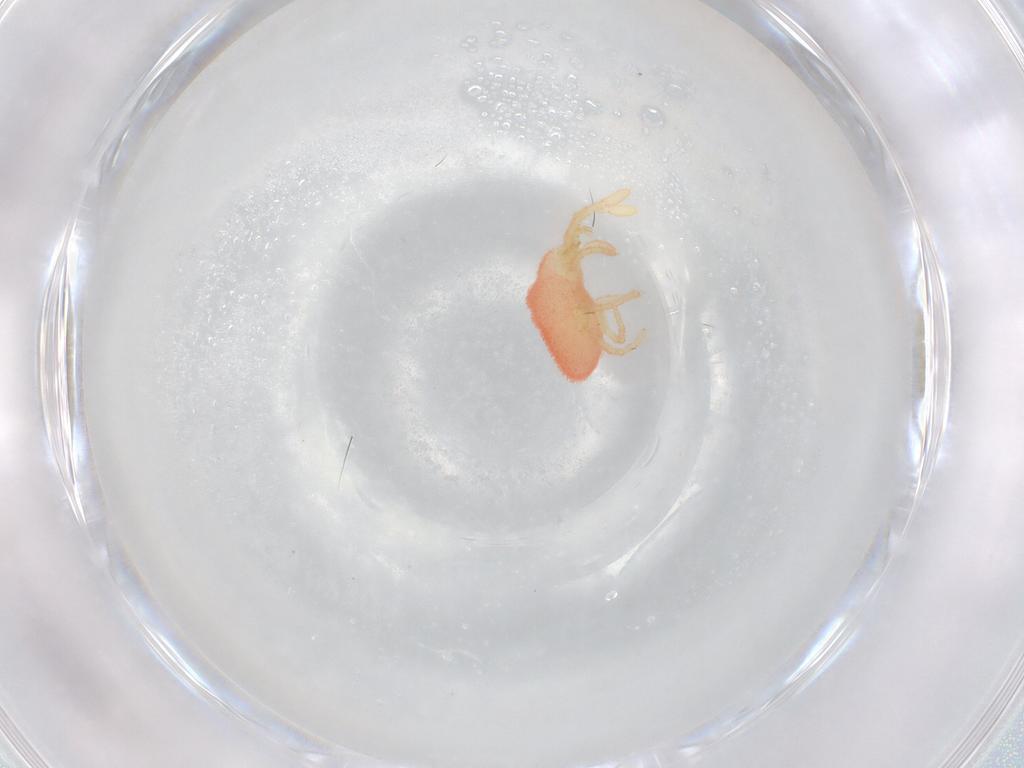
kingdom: Animalia
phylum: Arthropoda
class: Arachnida
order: Trombidiformes
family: Trombidiidae
